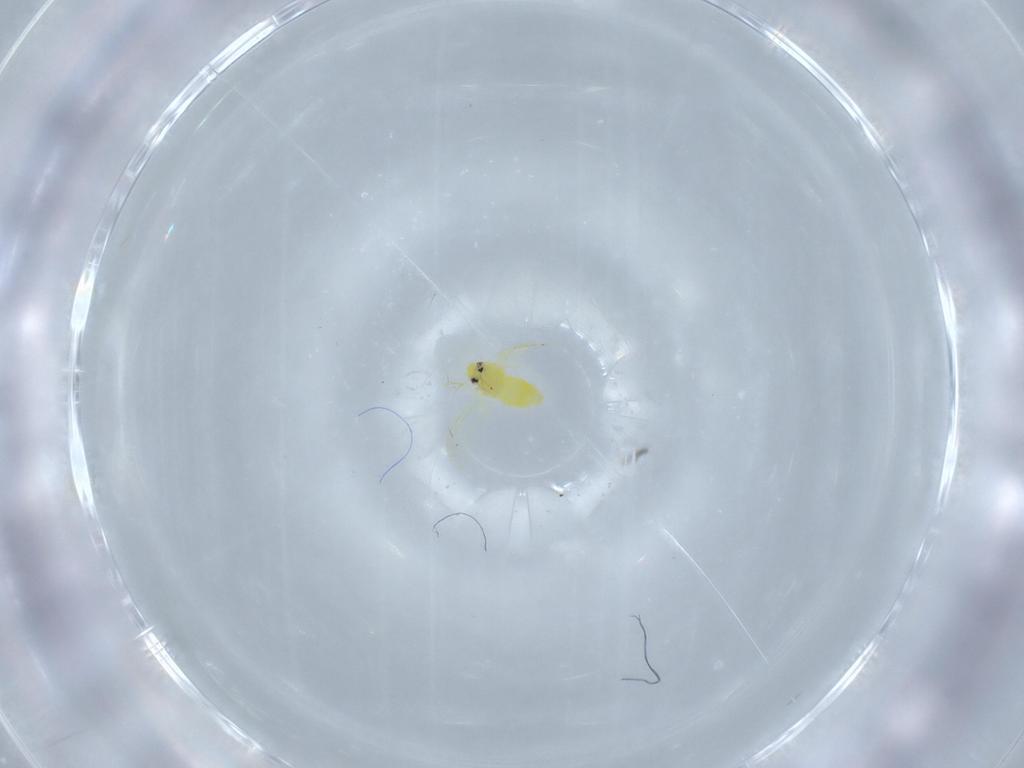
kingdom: Animalia
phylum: Arthropoda
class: Insecta
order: Hemiptera
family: Aleyrodidae
